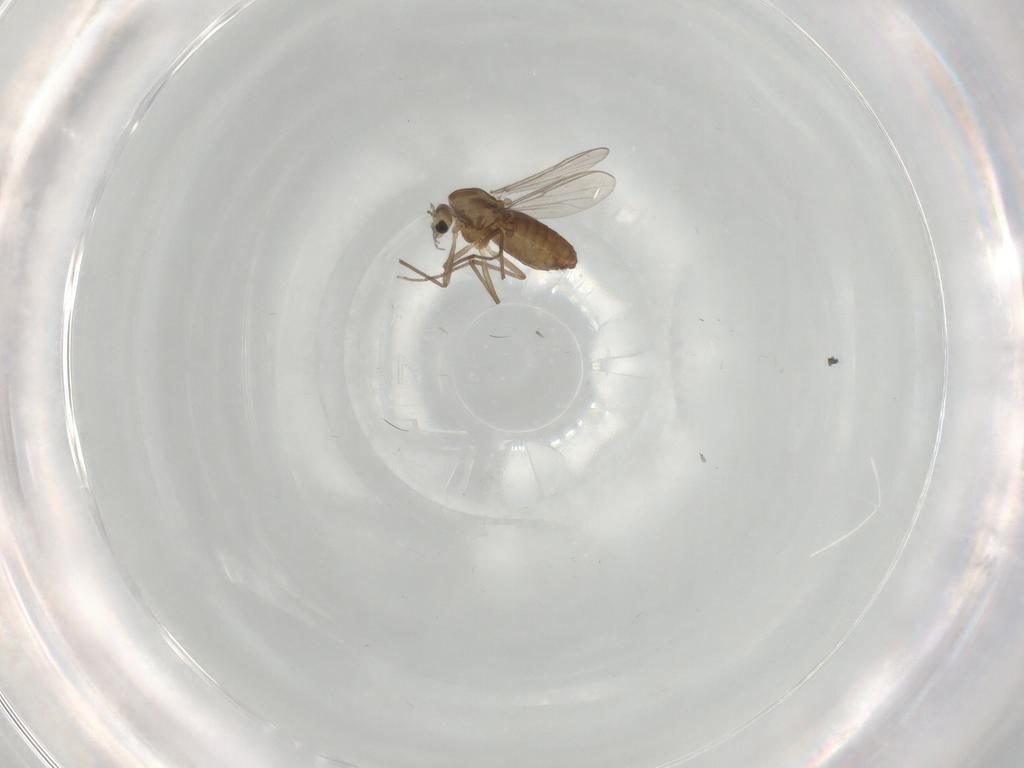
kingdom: Animalia
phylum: Arthropoda
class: Insecta
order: Diptera
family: Chironomidae
